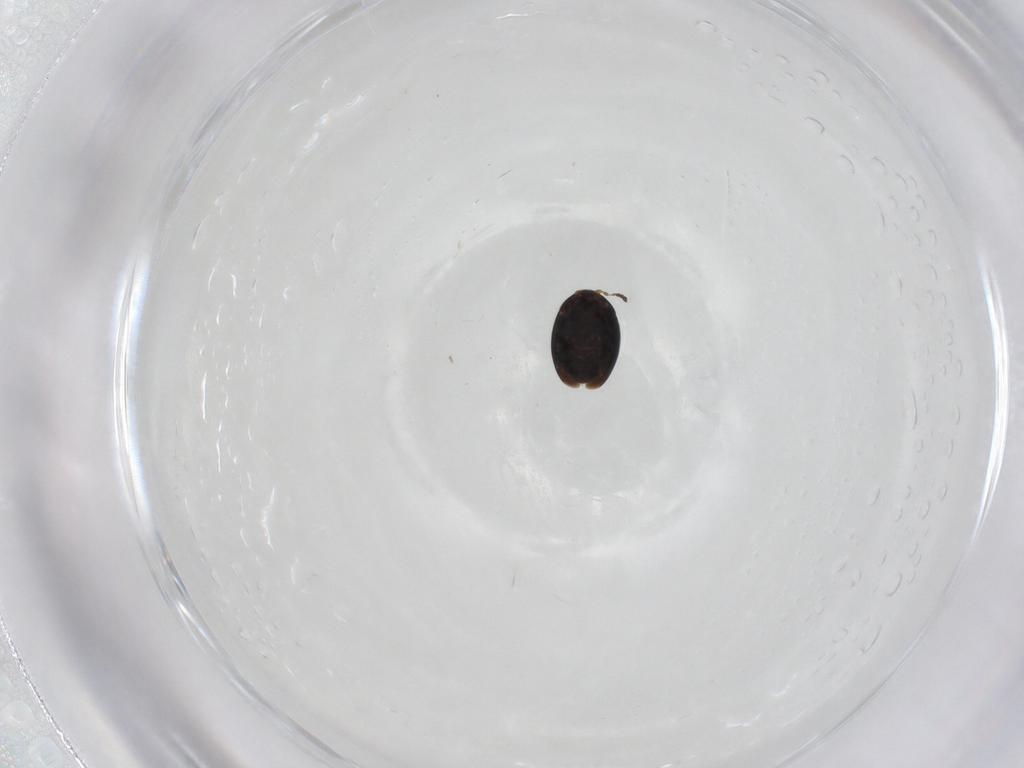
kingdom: Animalia
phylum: Arthropoda
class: Insecta
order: Coleoptera
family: Corylophidae
